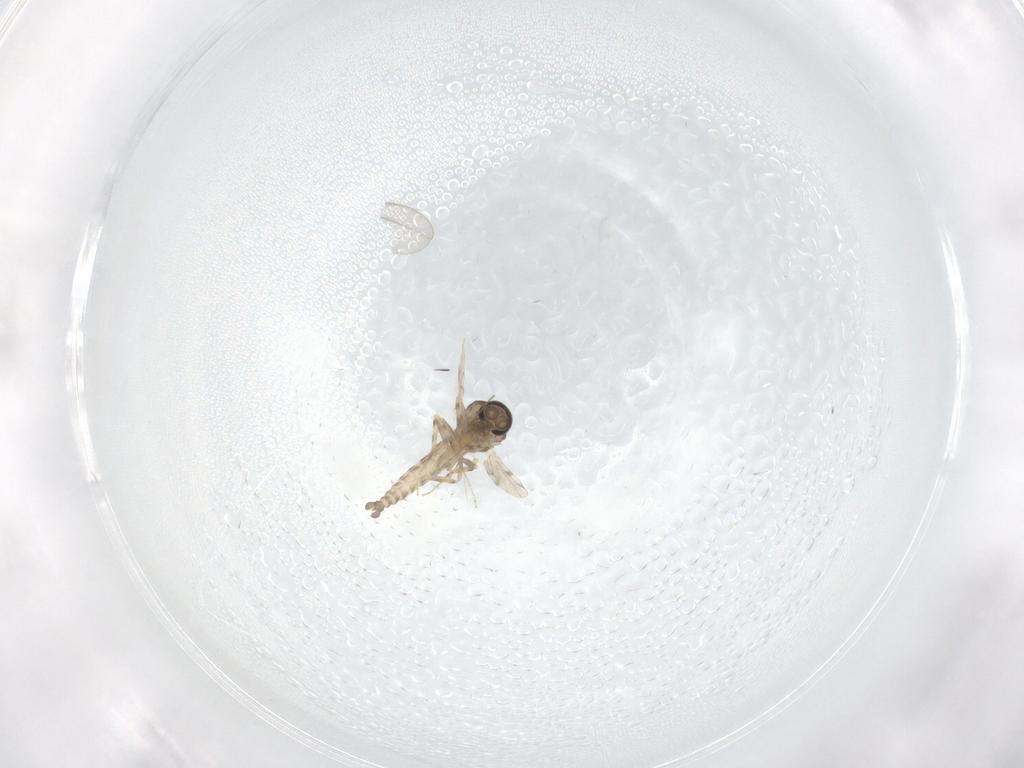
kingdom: Animalia
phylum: Arthropoda
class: Insecta
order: Diptera
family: Ceratopogonidae
